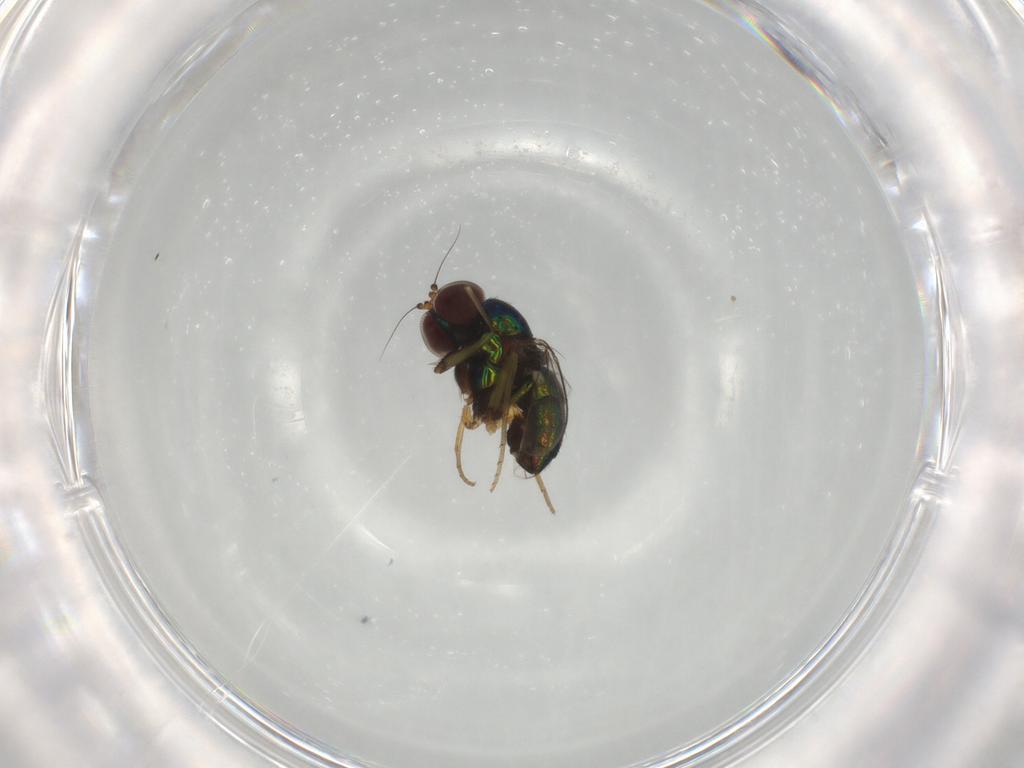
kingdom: Animalia
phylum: Arthropoda
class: Insecta
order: Diptera
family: Dolichopodidae
